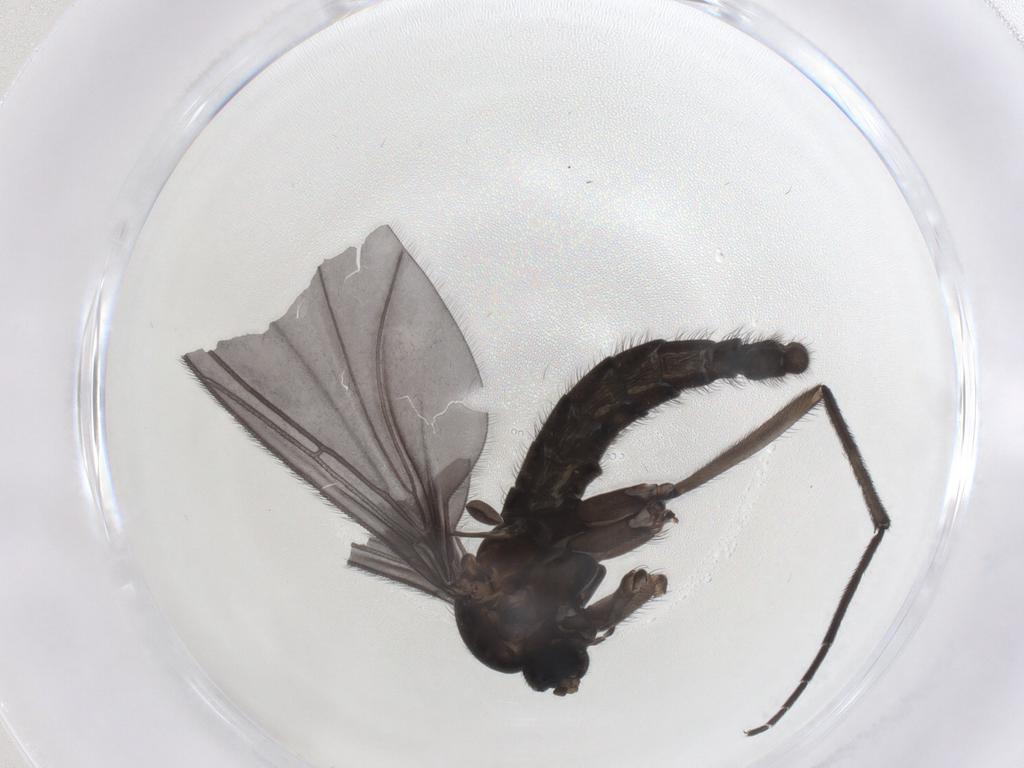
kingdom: Animalia
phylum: Arthropoda
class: Insecta
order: Diptera
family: Sciaridae
